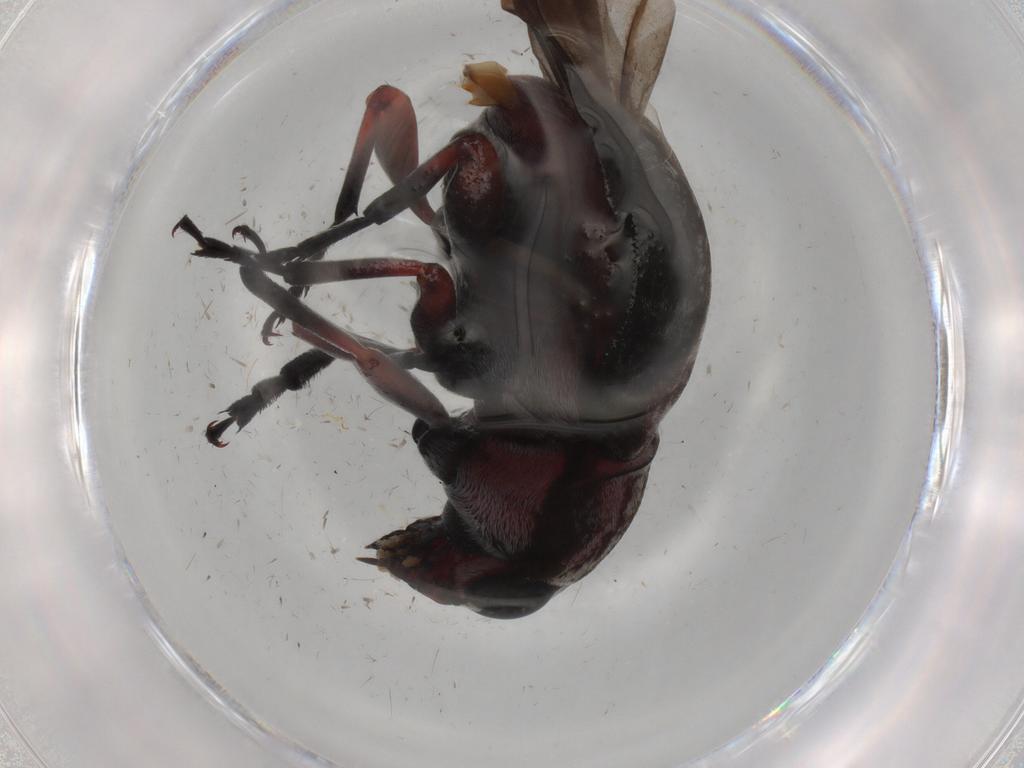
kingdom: Animalia
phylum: Arthropoda
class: Insecta
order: Coleoptera
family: Chrysomelidae
